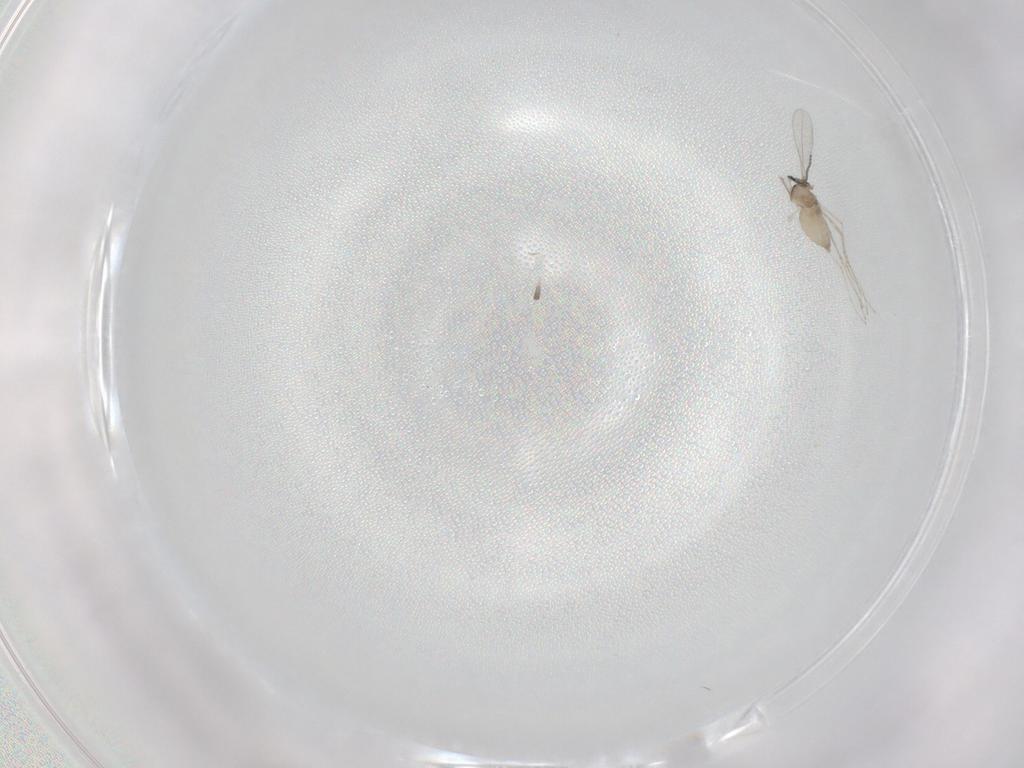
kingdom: Animalia
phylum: Arthropoda
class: Insecta
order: Diptera
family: Cecidomyiidae
